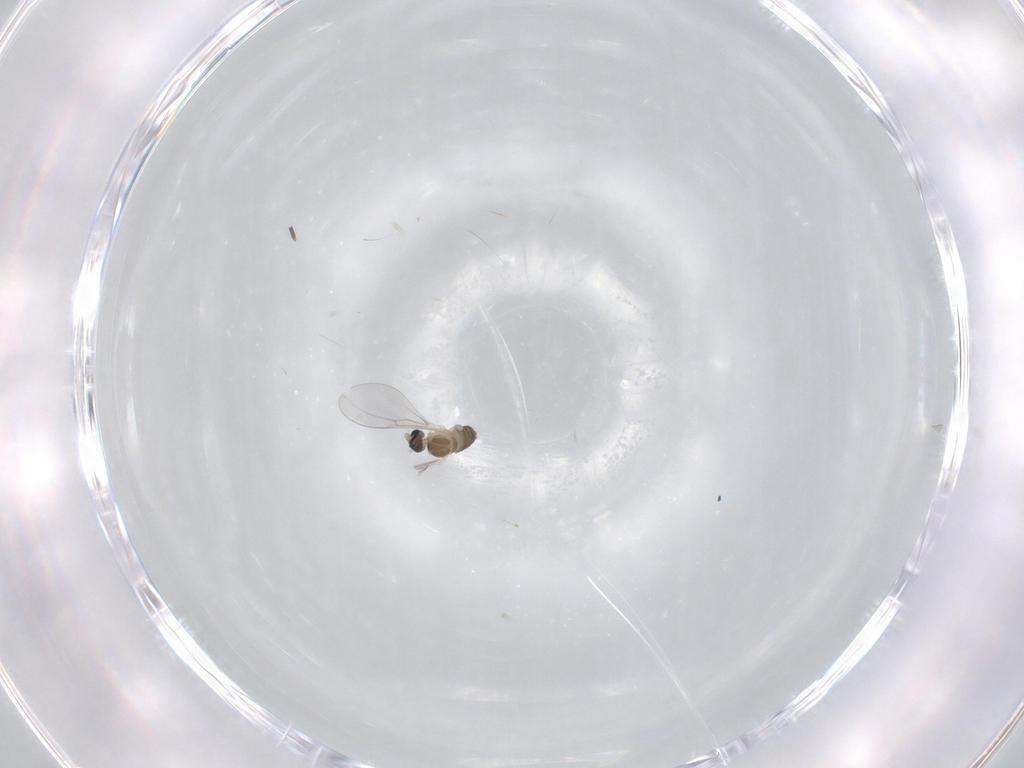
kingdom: Animalia
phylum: Arthropoda
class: Insecta
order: Diptera
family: Cecidomyiidae
